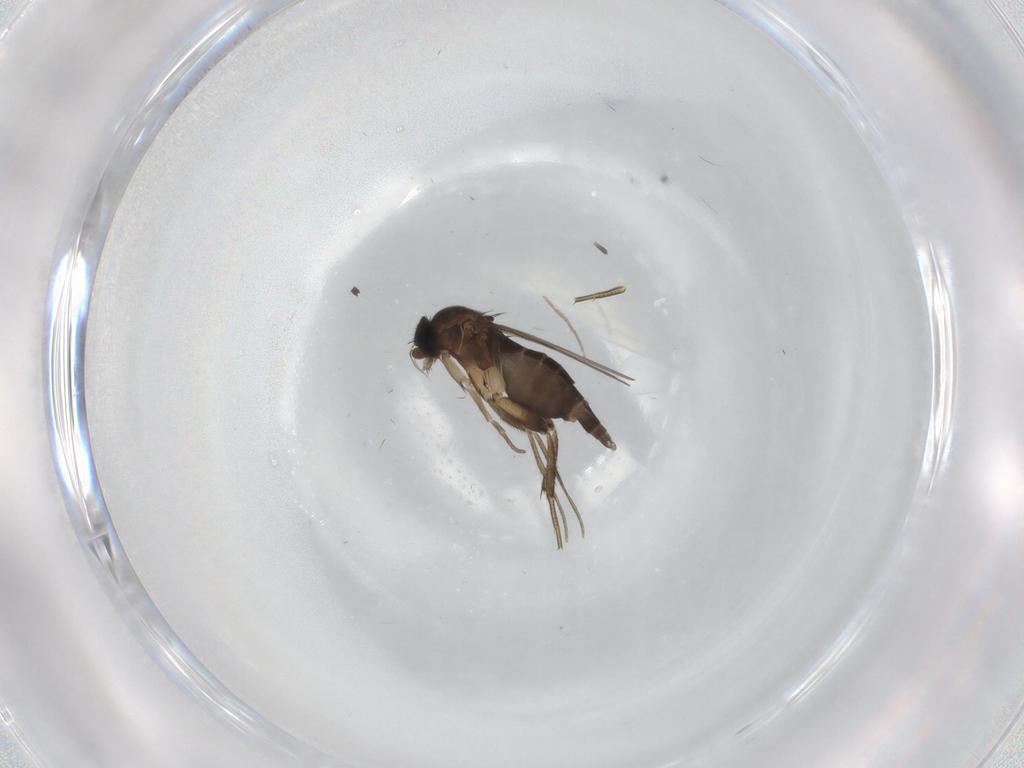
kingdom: Animalia
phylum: Arthropoda
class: Insecta
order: Diptera
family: Phoridae
